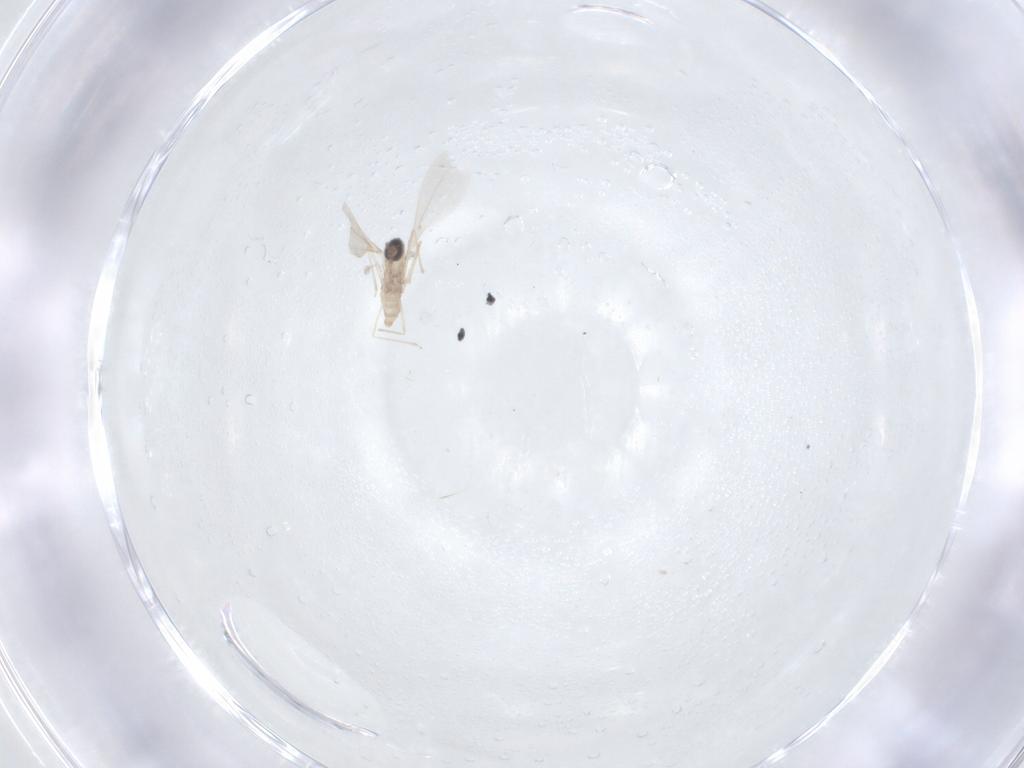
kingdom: Animalia
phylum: Arthropoda
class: Insecta
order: Diptera
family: Cecidomyiidae
